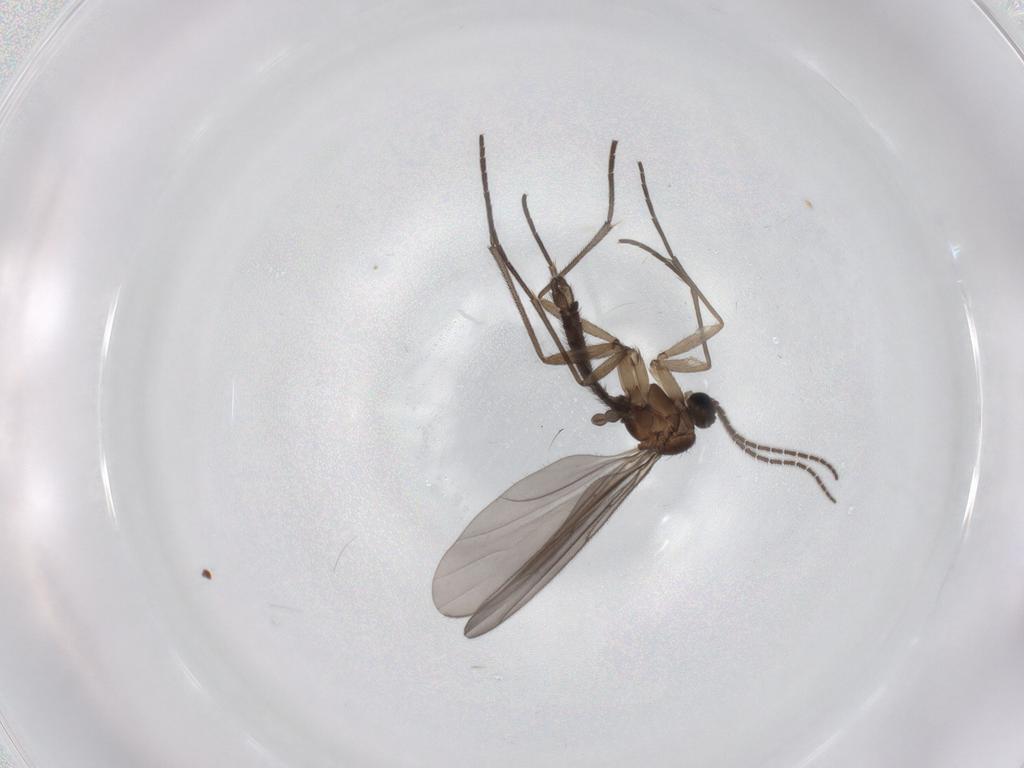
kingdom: Animalia
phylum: Arthropoda
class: Insecta
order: Diptera
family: Sciaridae
